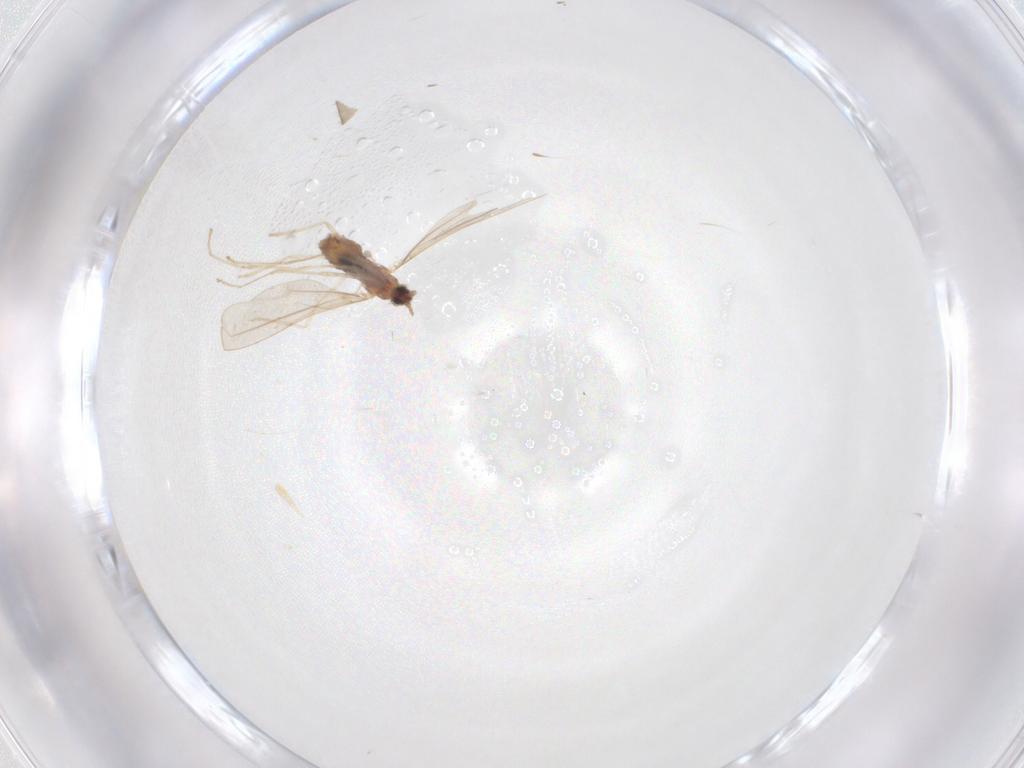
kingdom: Animalia
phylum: Arthropoda
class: Insecta
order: Diptera
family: Cecidomyiidae
